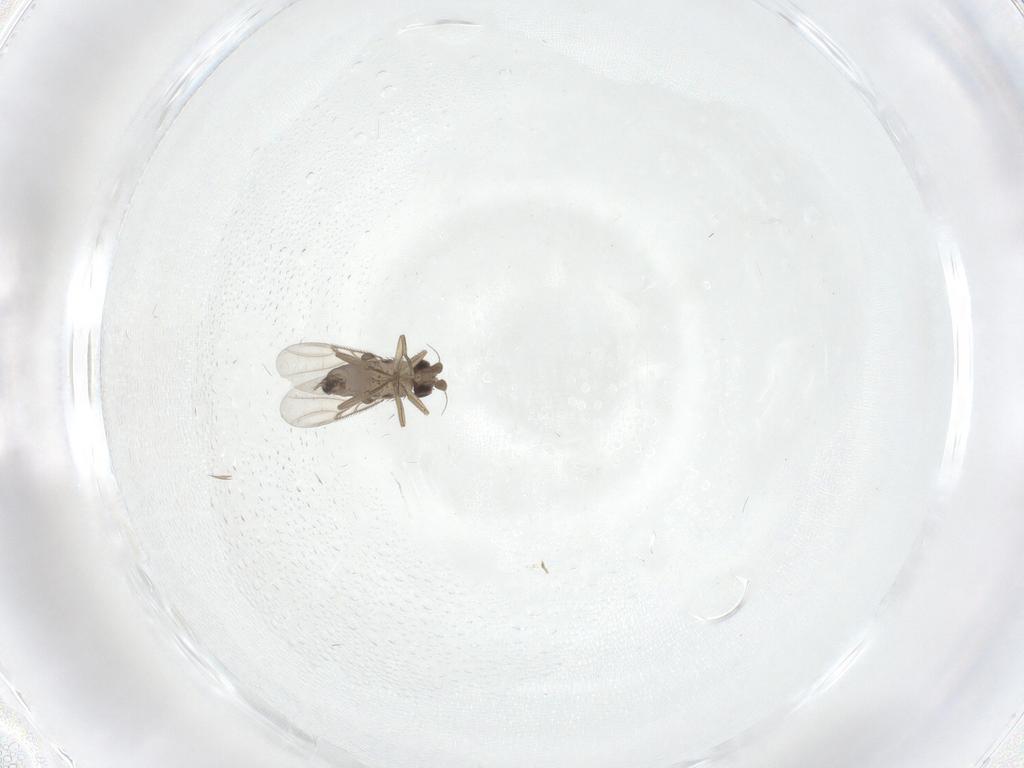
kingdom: Animalia
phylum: Arthropoda
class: Insecta
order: Diptera
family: Limoniidae
